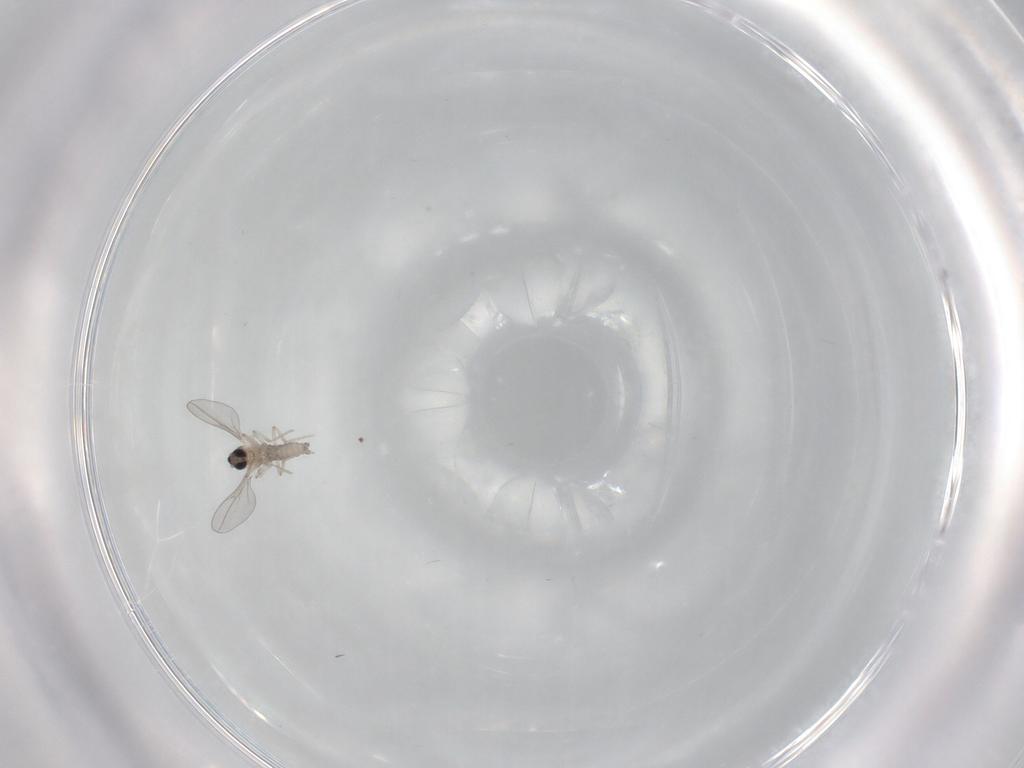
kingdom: Animalia
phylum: Arthropoda
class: Insecta
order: Diptera
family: Cecidomyiidae
